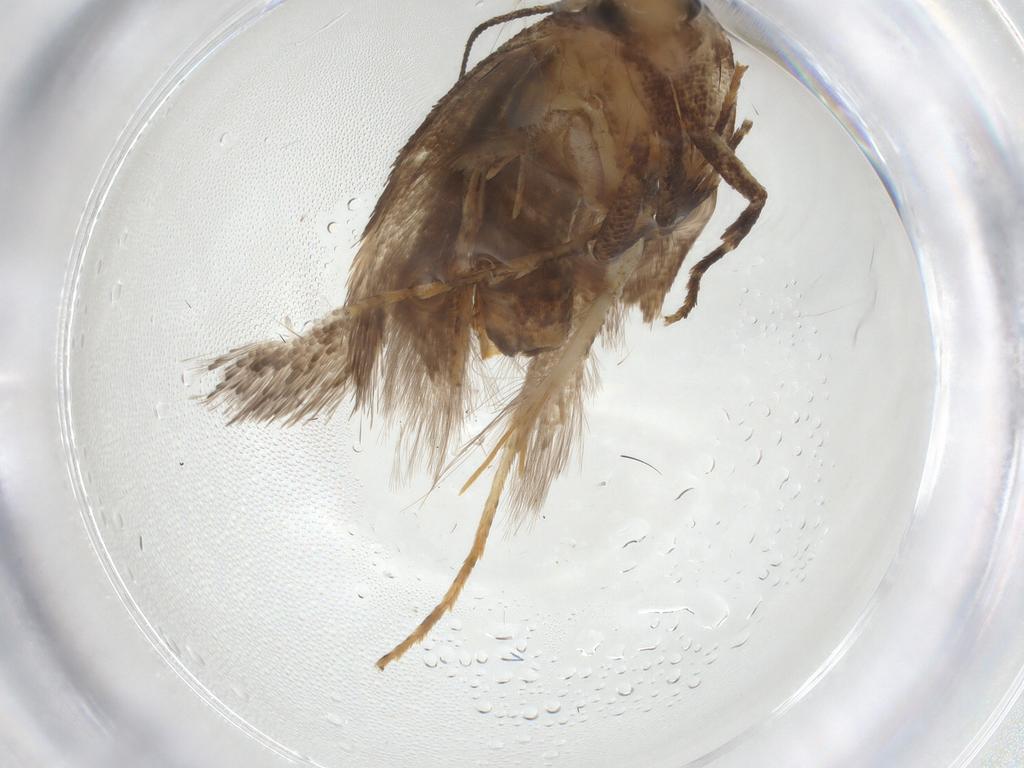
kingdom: Animalia
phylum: Arthropoda
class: Insecta
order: Lepidoptera
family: Gelechiidae
